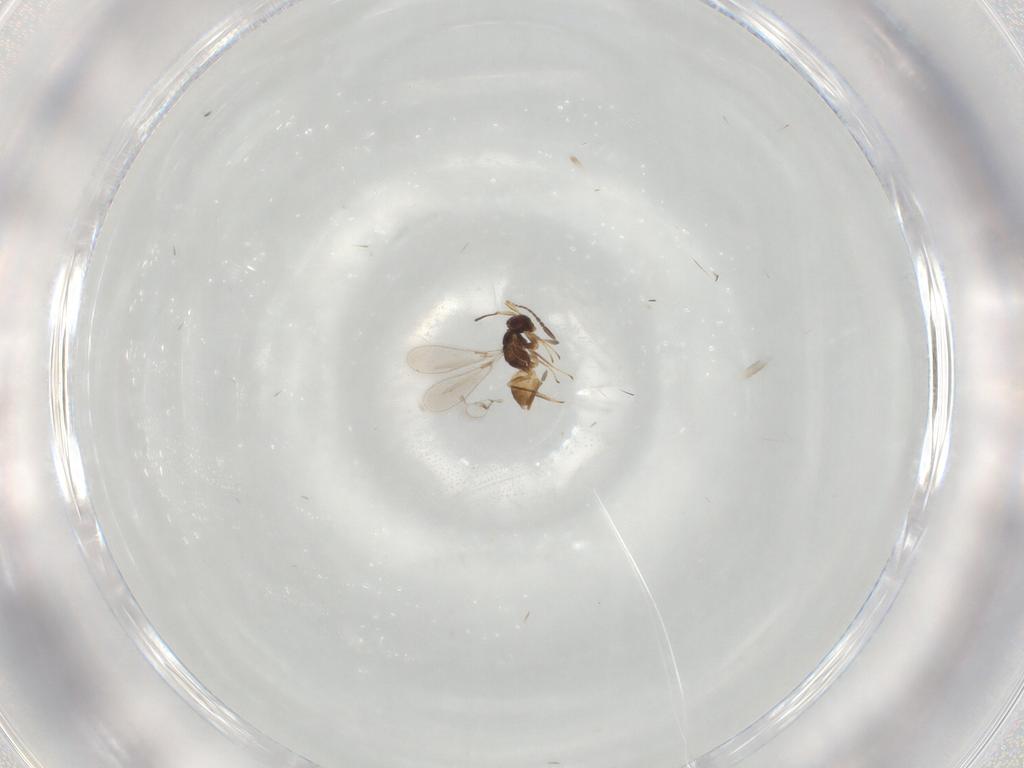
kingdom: Animalia
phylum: Arthropoda
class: Insecta
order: Hymenoptera
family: Mymaridae
